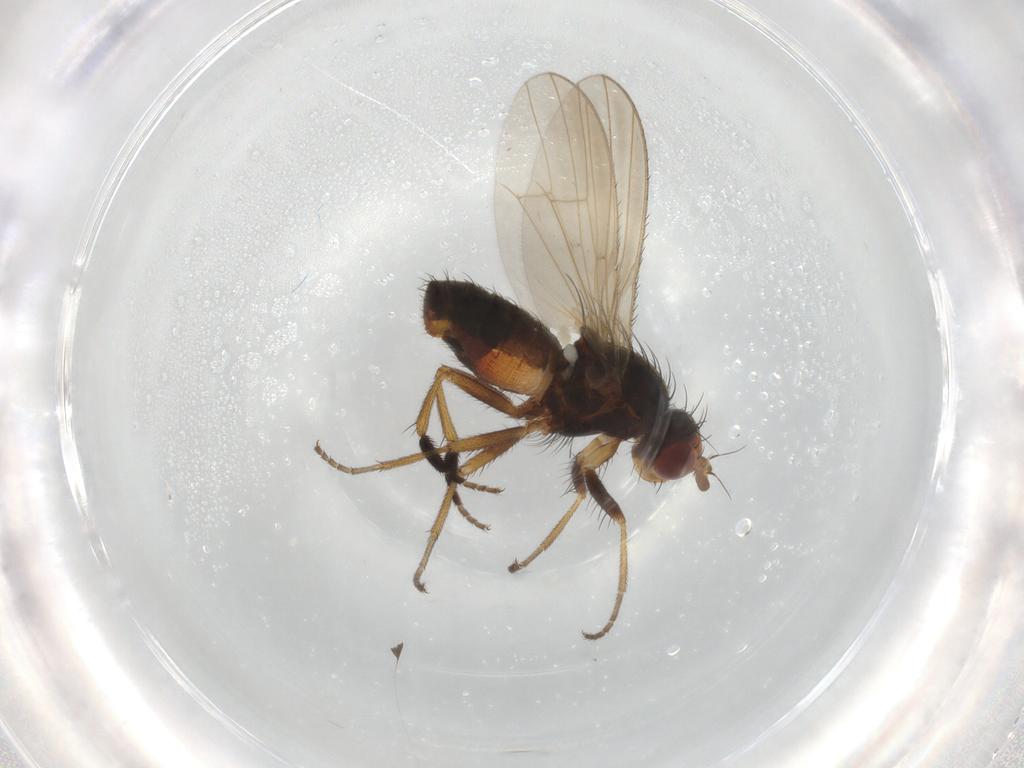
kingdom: Animalia
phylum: Arthropoda
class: Insecta
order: Diptera
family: Heleomyzidae
